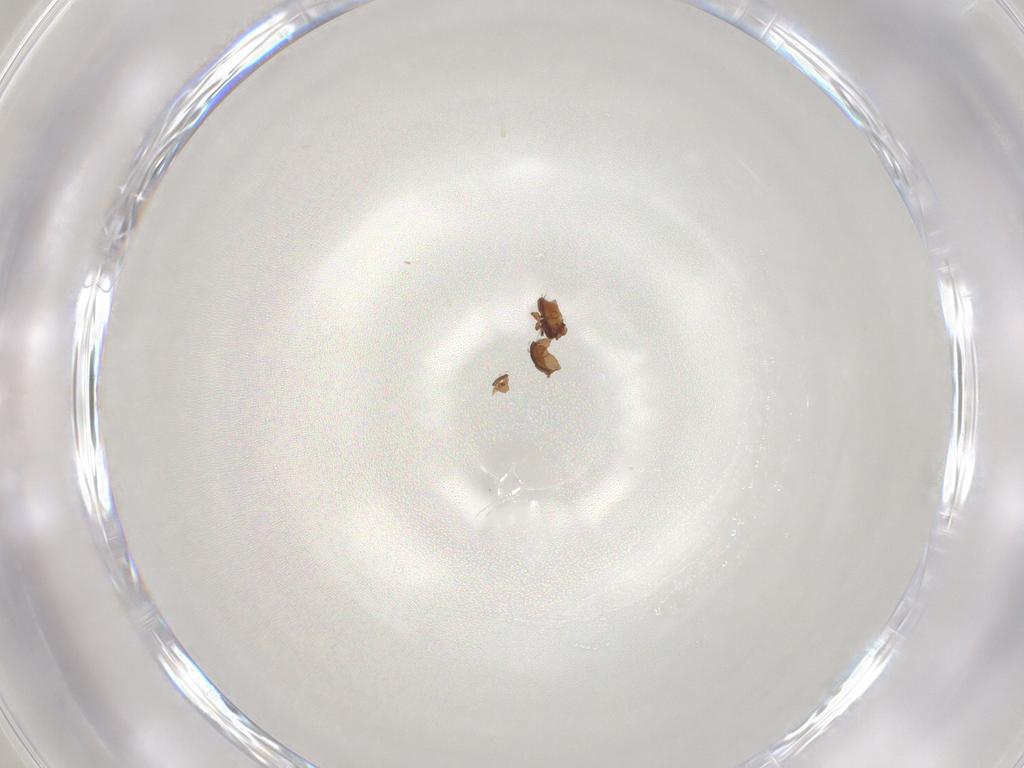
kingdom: Animalia
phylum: Arthropoda
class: Arachnida
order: Sarcoptiformes
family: Scheloribatidae
